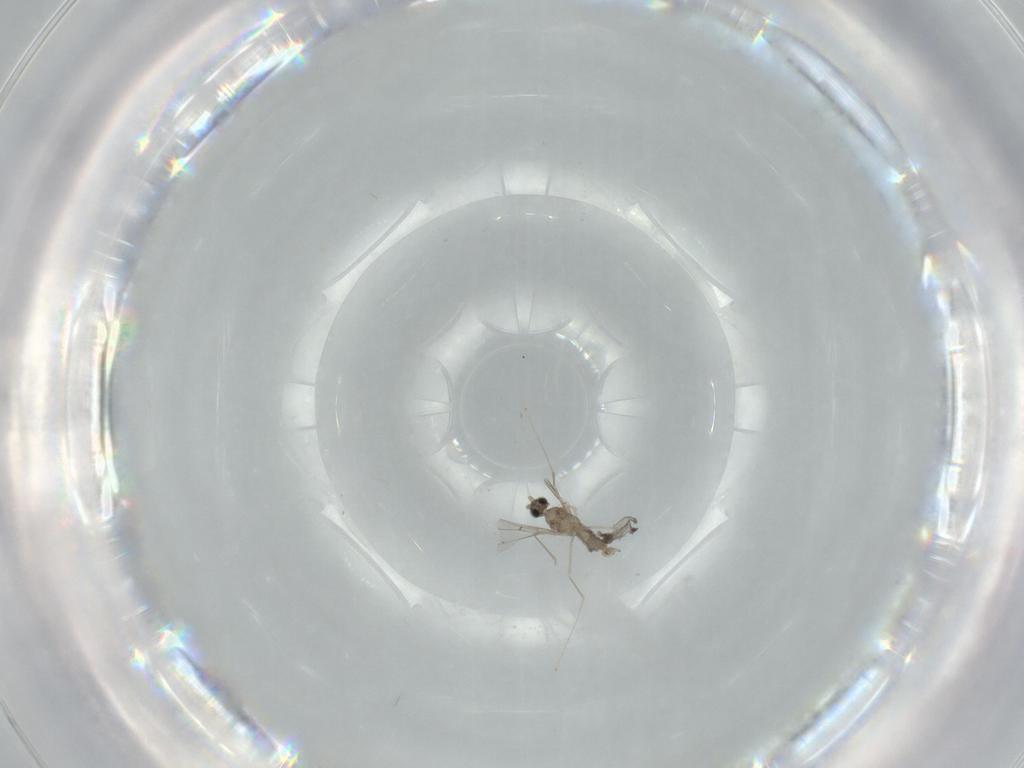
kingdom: Animalia
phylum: Arthropoda
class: Insecta
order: Diptera
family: Cecidomyiidae
